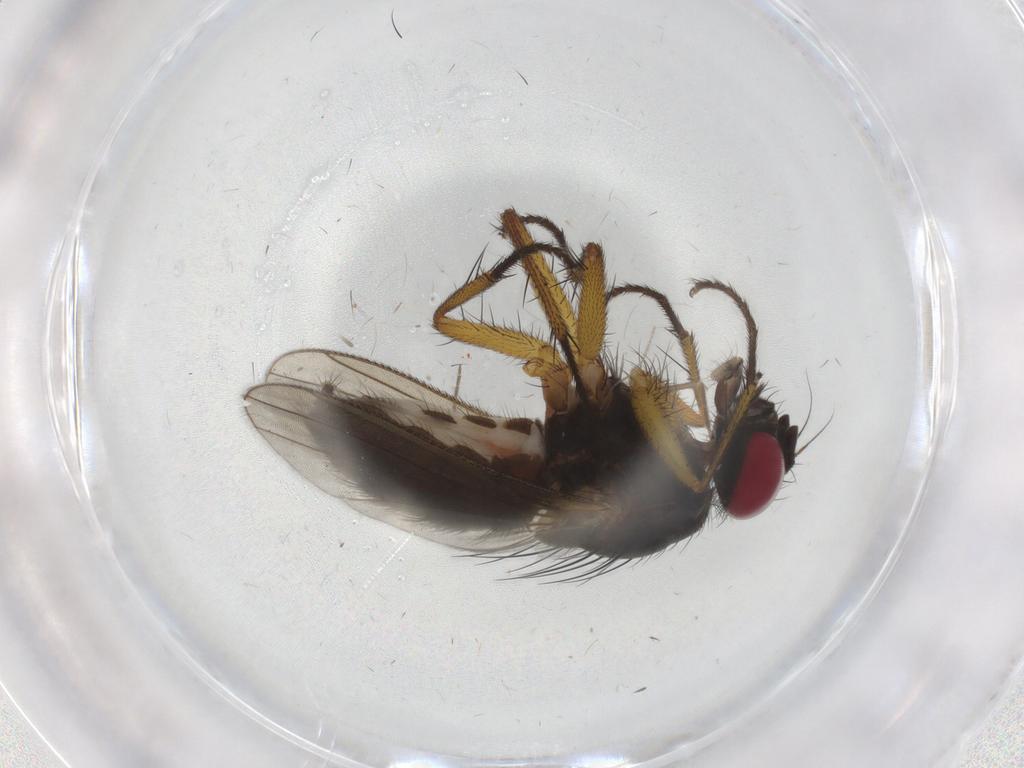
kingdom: Animalia
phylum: Arthropoda
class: Insecta
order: Diptera
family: Muscidae
